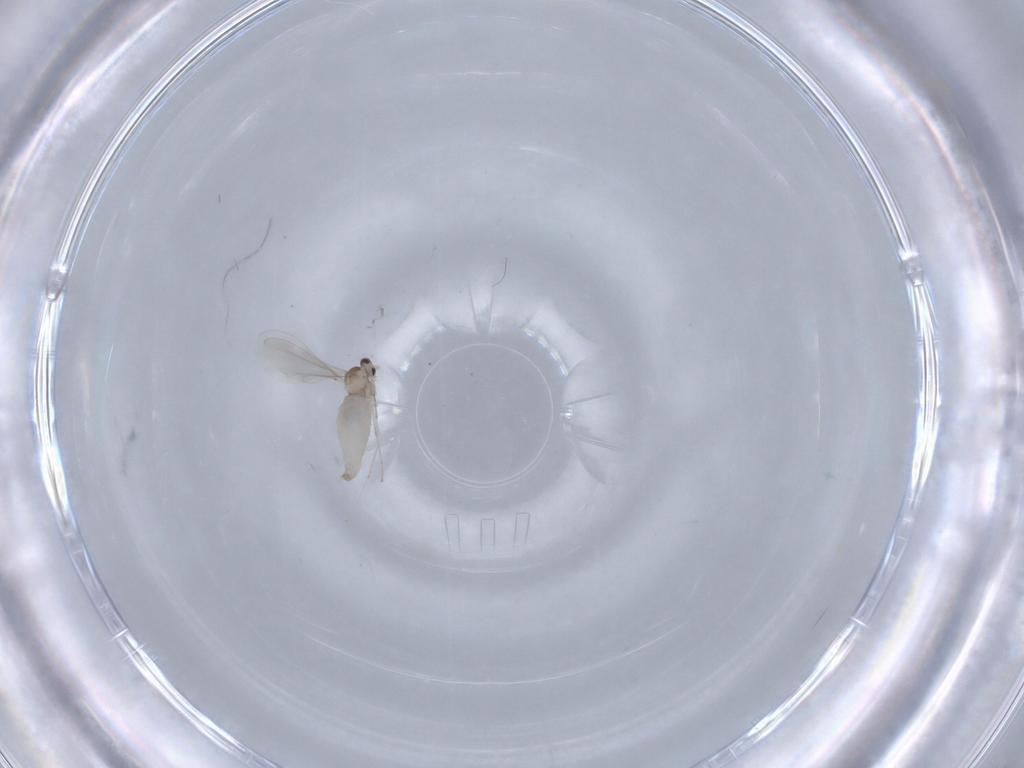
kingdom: Animalia
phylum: Arthropoda
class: Insecta
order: Diptera
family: Cecidomyiidae
